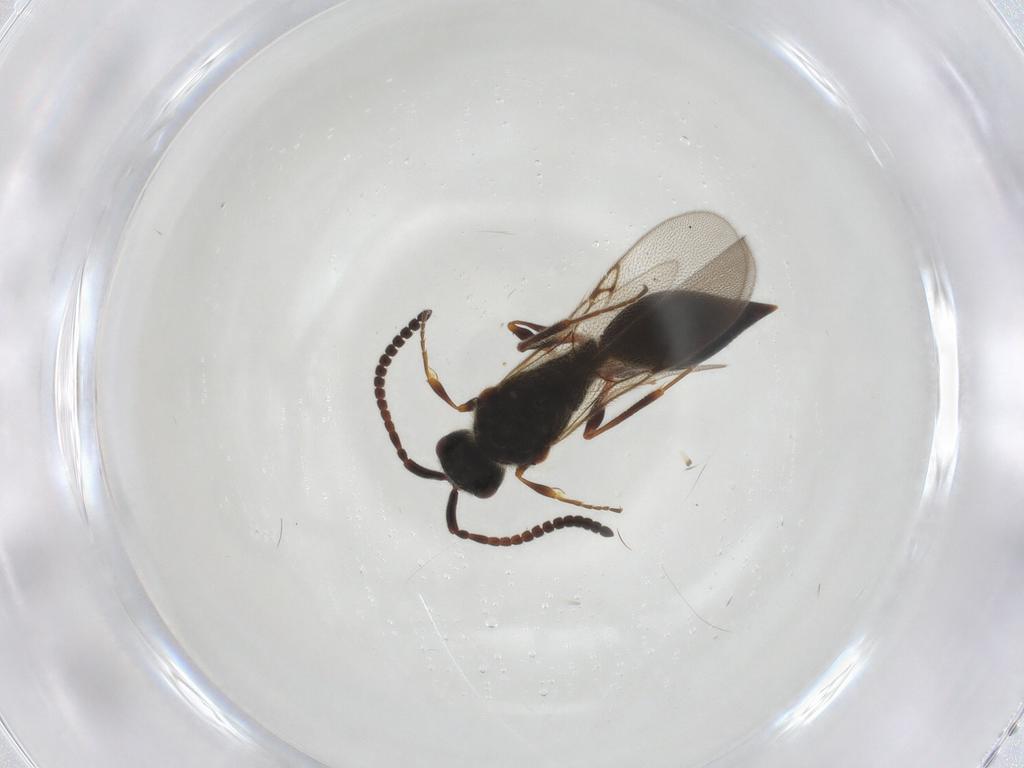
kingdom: Animalia
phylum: Arthropoda
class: Insecta
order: Hymenoptera
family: Diapriidae
